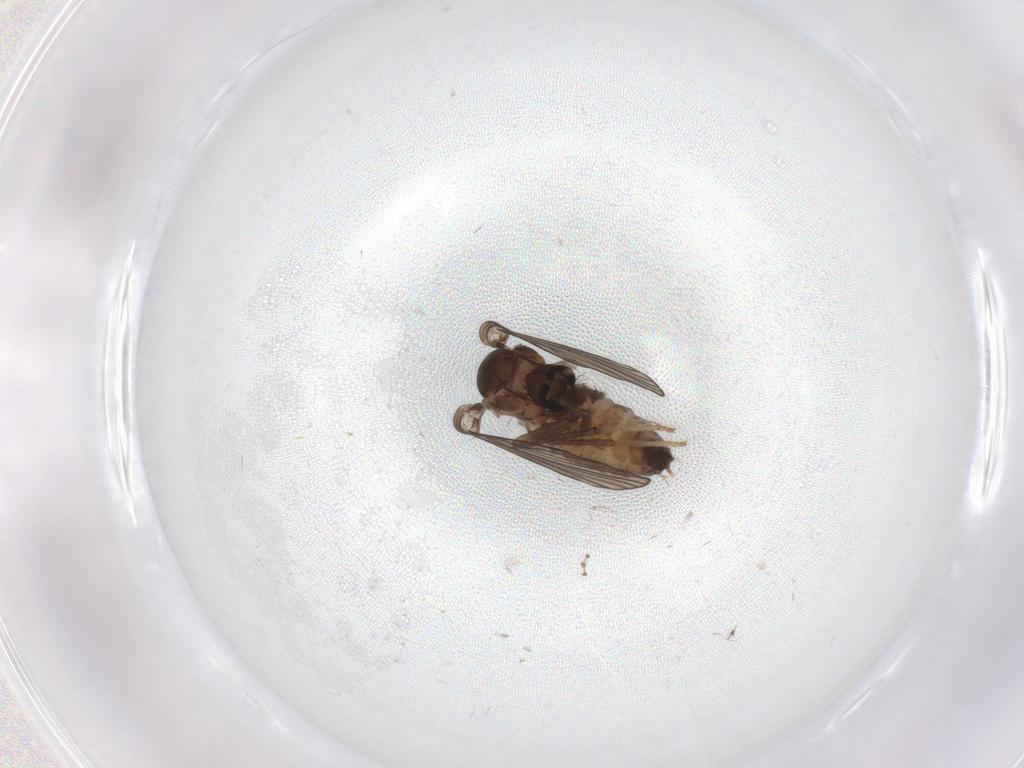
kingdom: Animalia
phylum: Arthropoda
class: Insecta
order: Diptera
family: Psychodidae
